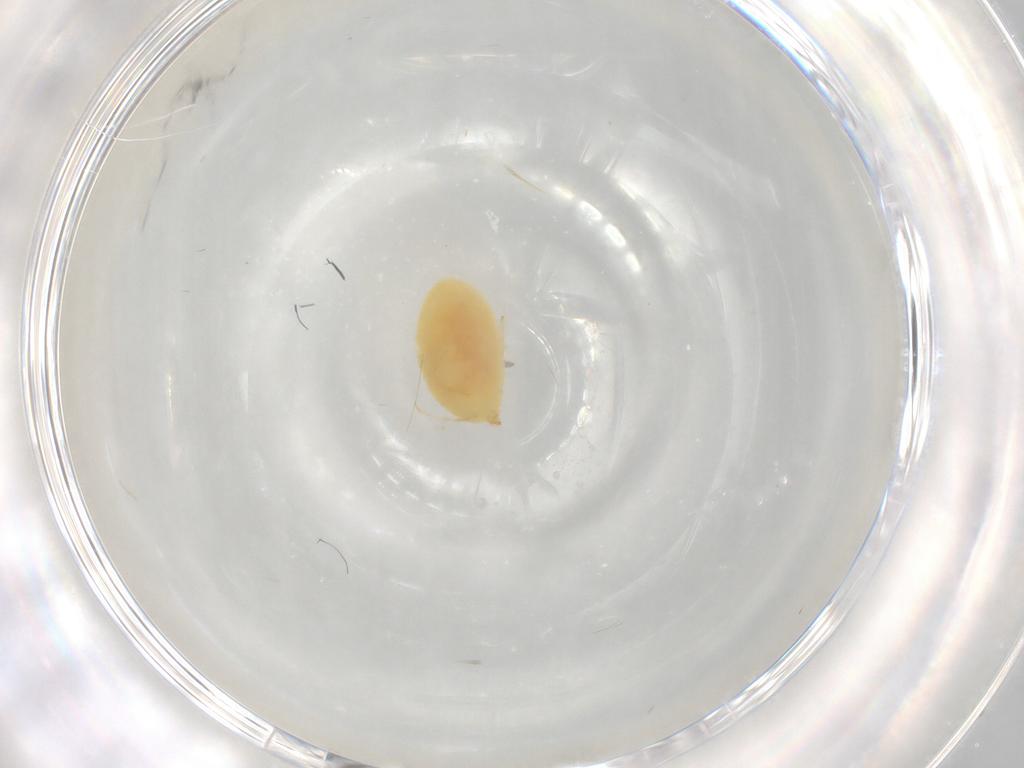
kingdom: Animalia
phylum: Arthropoda
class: Arachnida
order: Trombidiformes
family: Erythraeidae
